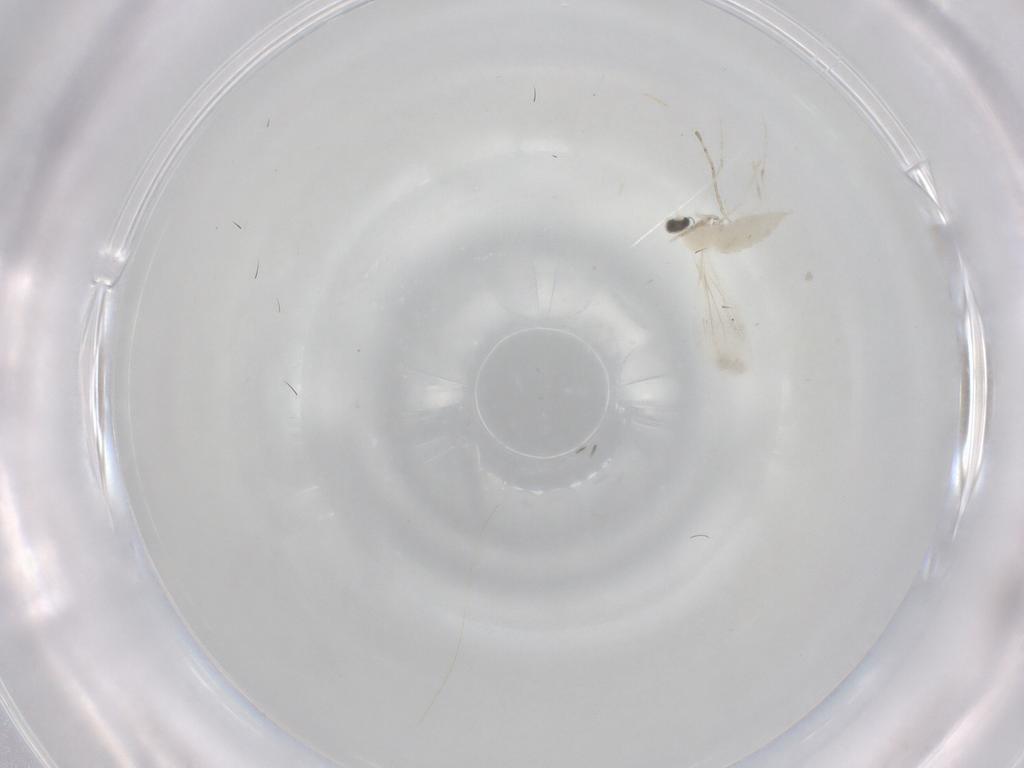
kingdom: Animalia
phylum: Arthropoda
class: Insecta
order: Diptera
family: Cecidomyiidae
